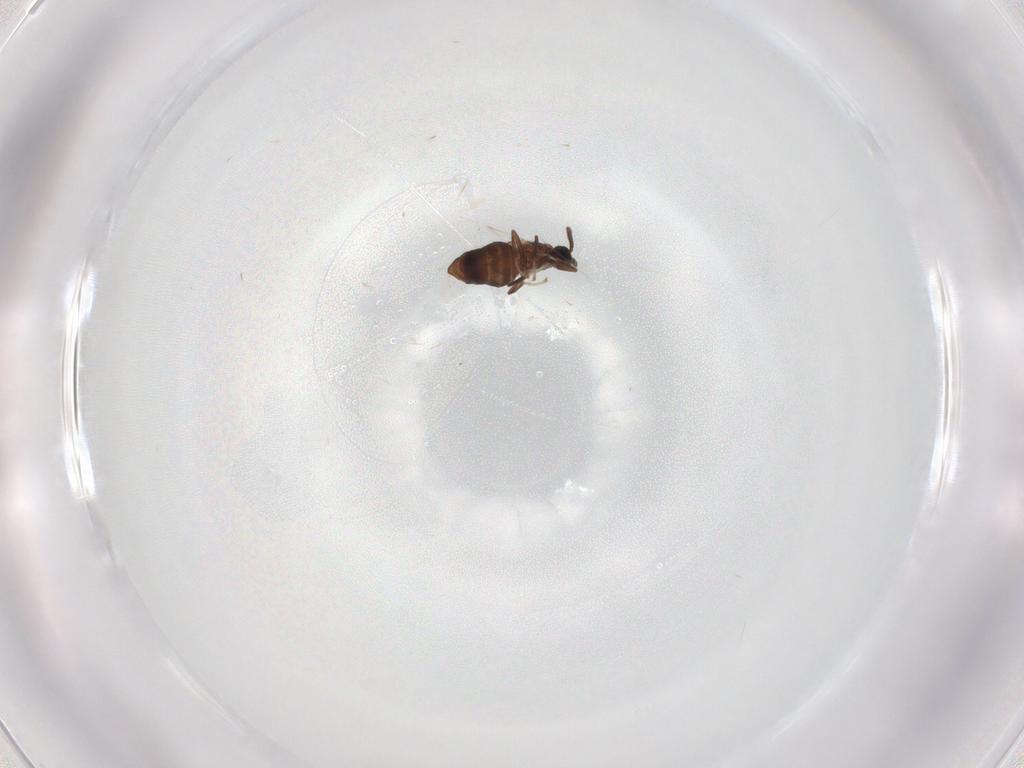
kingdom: Animalia
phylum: Arthropoda
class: Insecta
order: Diptera
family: Scatopsidae
